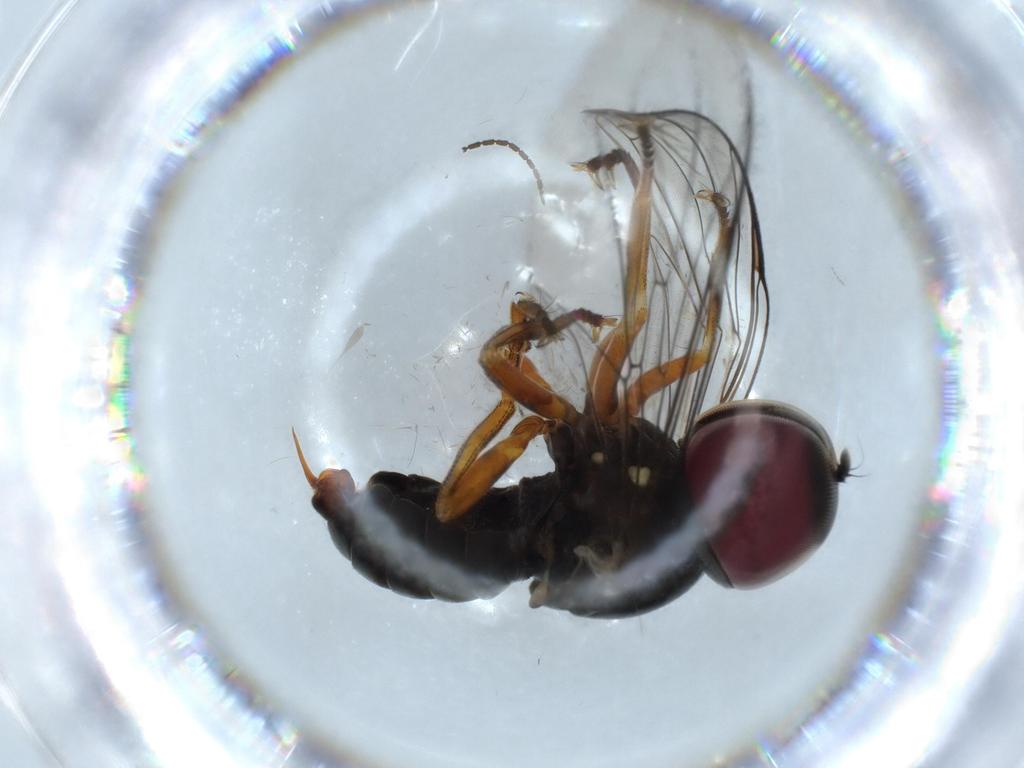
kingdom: Animalia
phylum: Arthropoda
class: Insecta
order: Diptera
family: Pipunculidae
